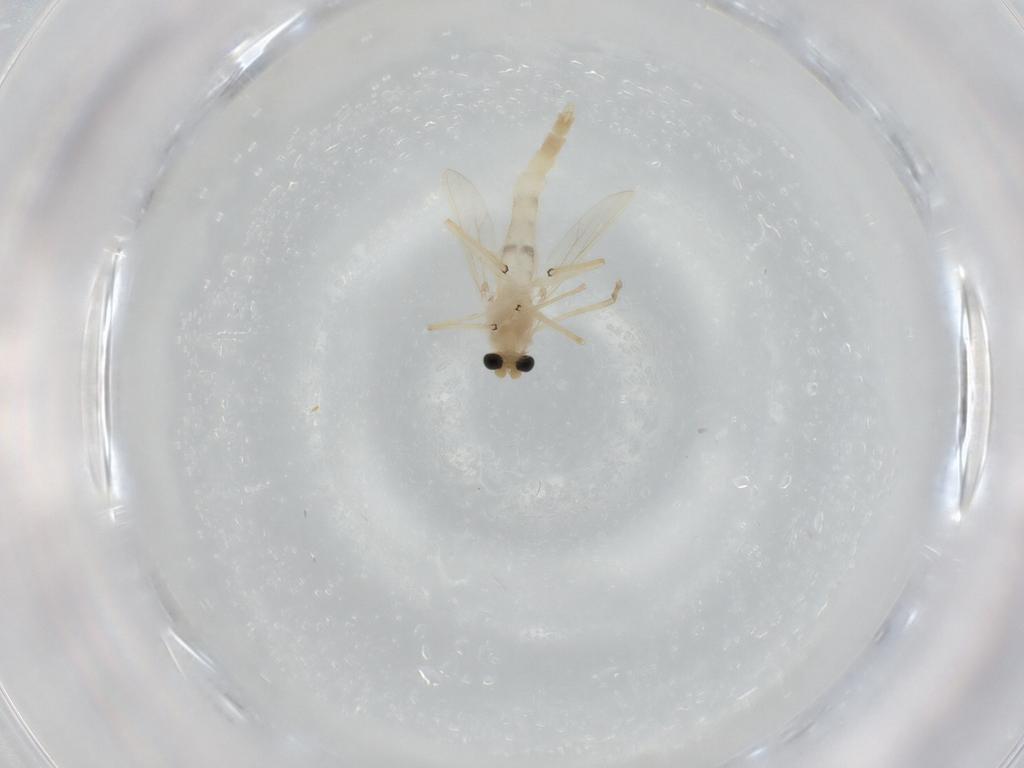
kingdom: Animalia
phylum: Arthropoda
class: Insecta
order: Diptera
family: Chironomidae
